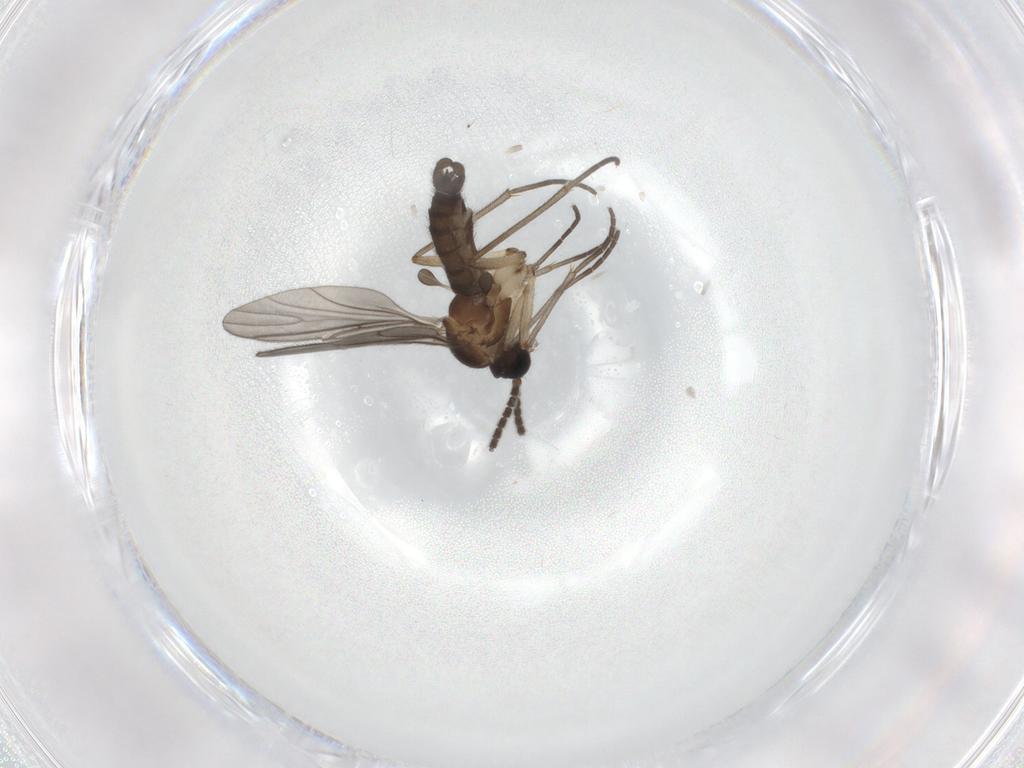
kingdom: Animalia
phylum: Arthropoda
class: Insecta
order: Diptera
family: Sciaridae
